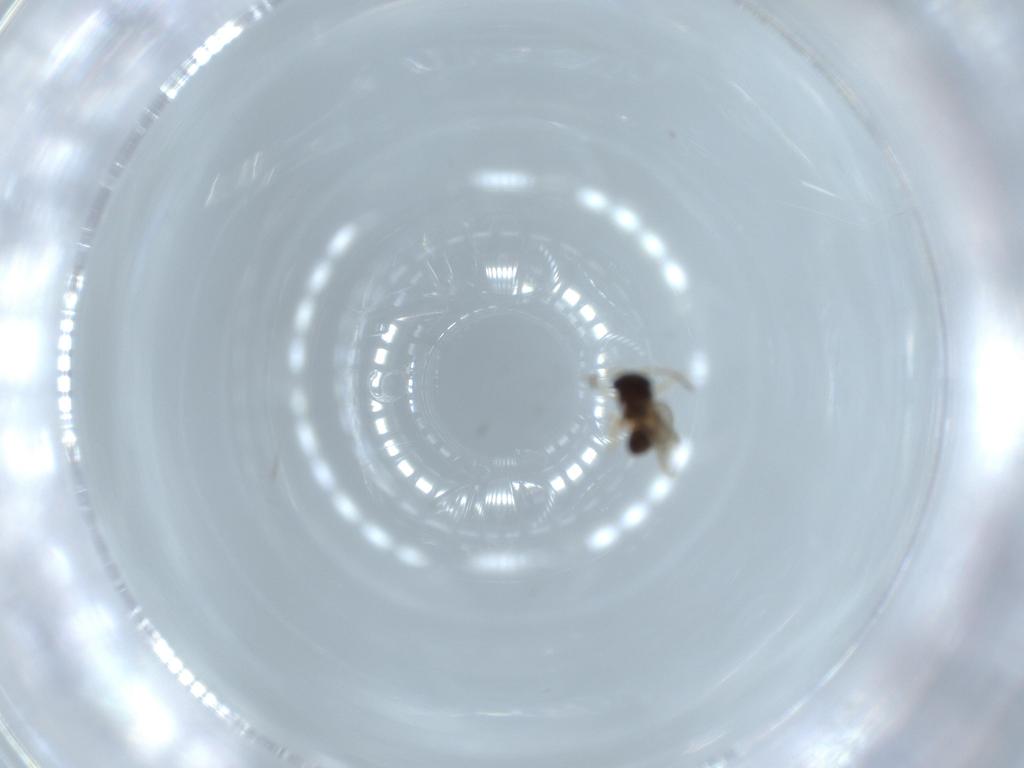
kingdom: Animalia
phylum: Arthropoda
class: Insecta
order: Hymenoptera
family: Scelionidae
